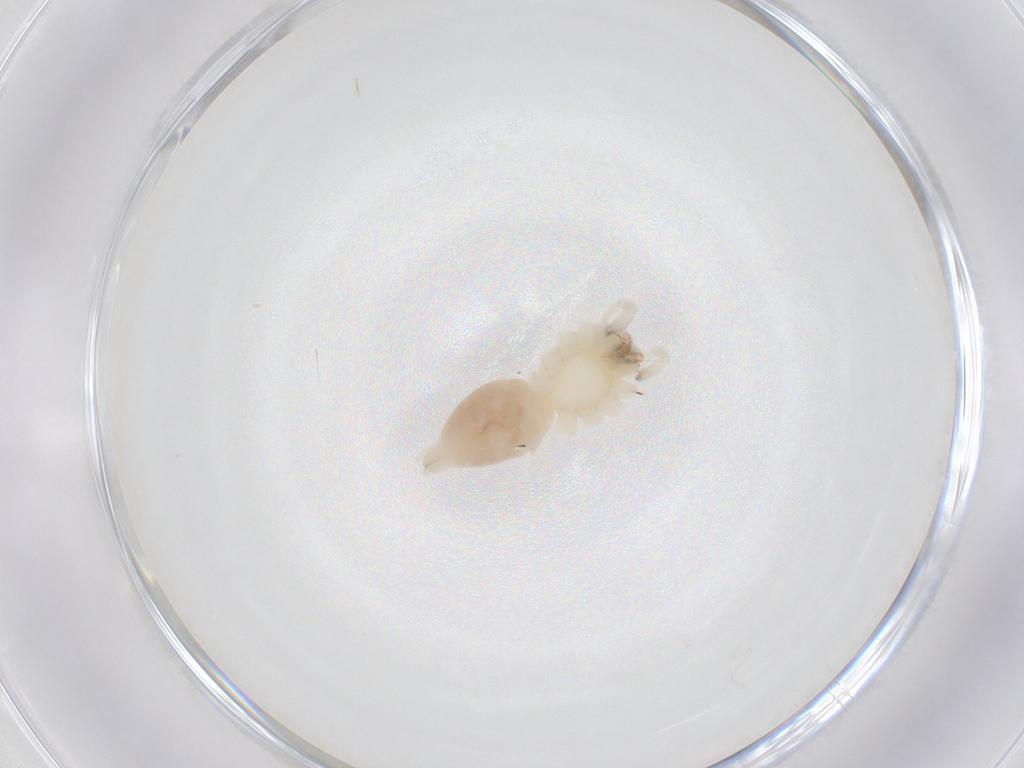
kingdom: Animalia
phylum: Arthropoda
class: Arachnida
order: Araneae
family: Anyphaenidae
